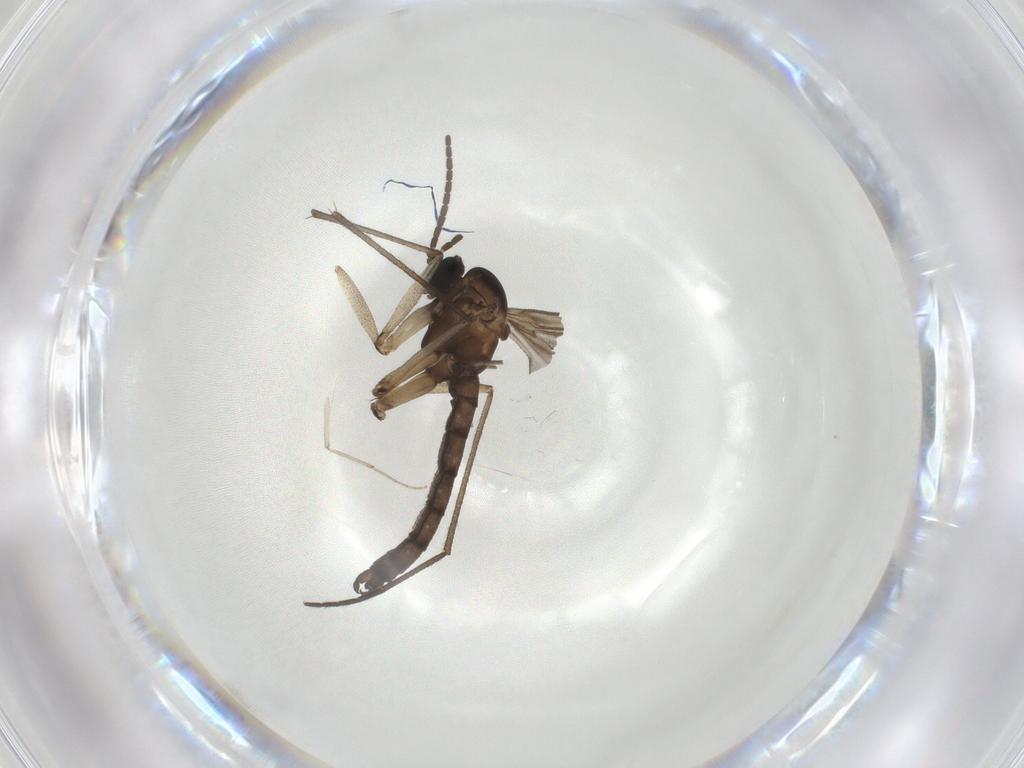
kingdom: Animalia
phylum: Arthropoda
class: Insecta
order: Diptera
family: Sciaridae
